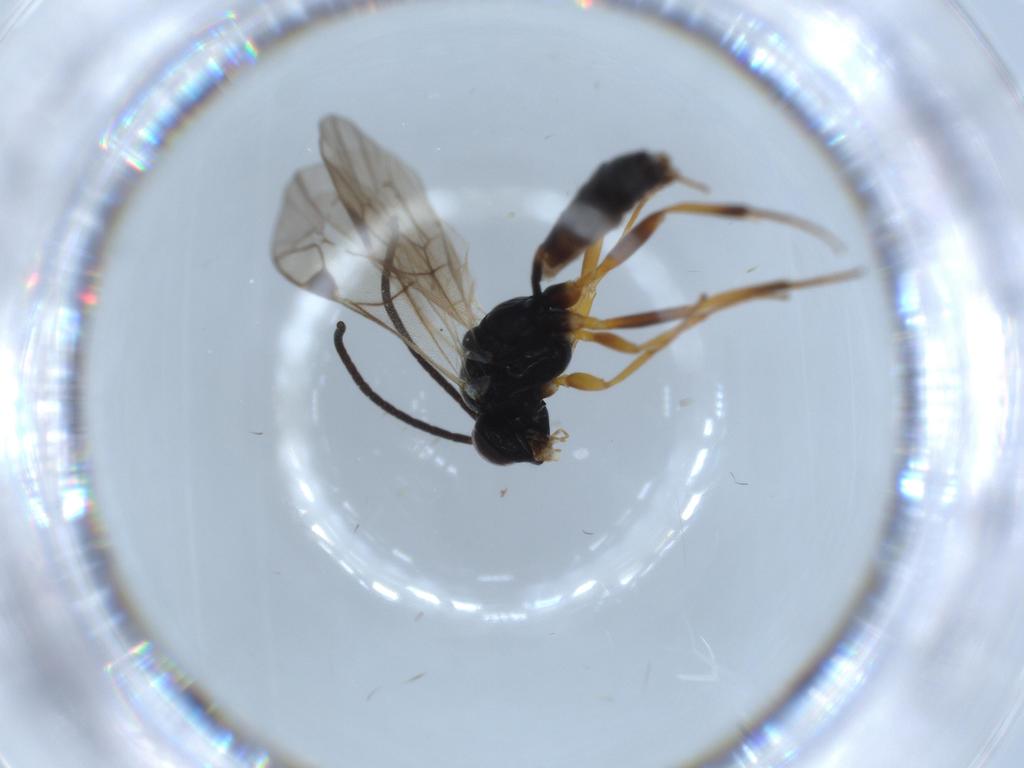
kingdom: Animalia
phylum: Arthropoda
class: Insecta
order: Hymenoptera
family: Ichneumonidae
